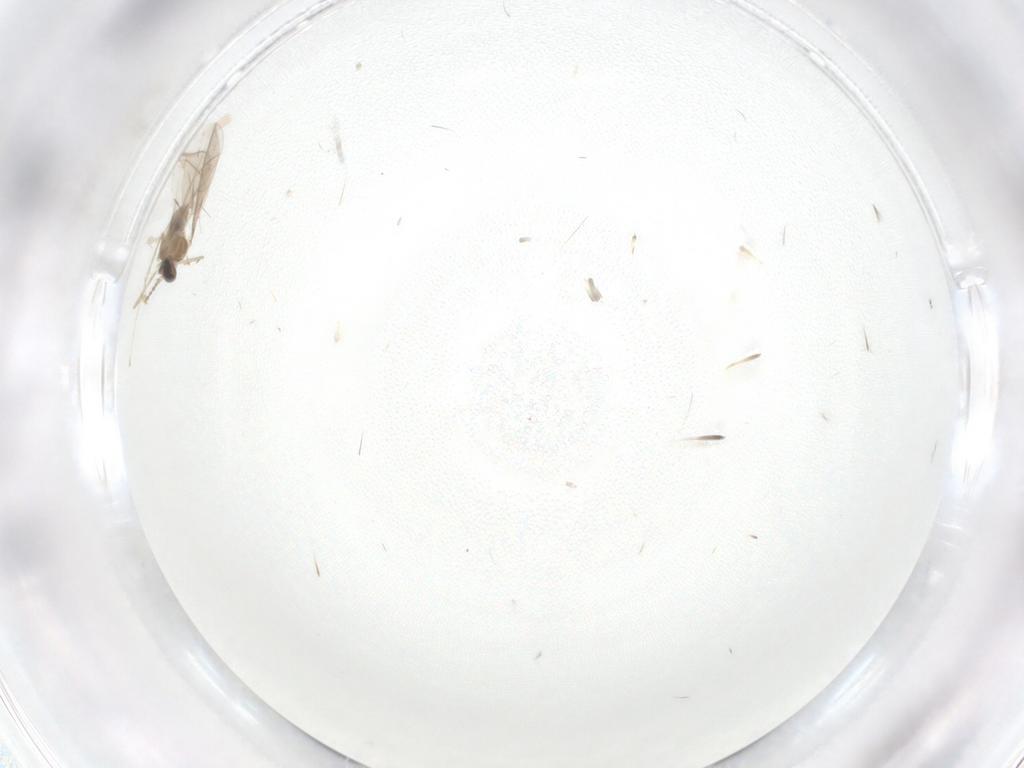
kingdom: Animalia
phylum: Arthropoda
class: Insecta
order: Diptera
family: Cecidomyiidae
